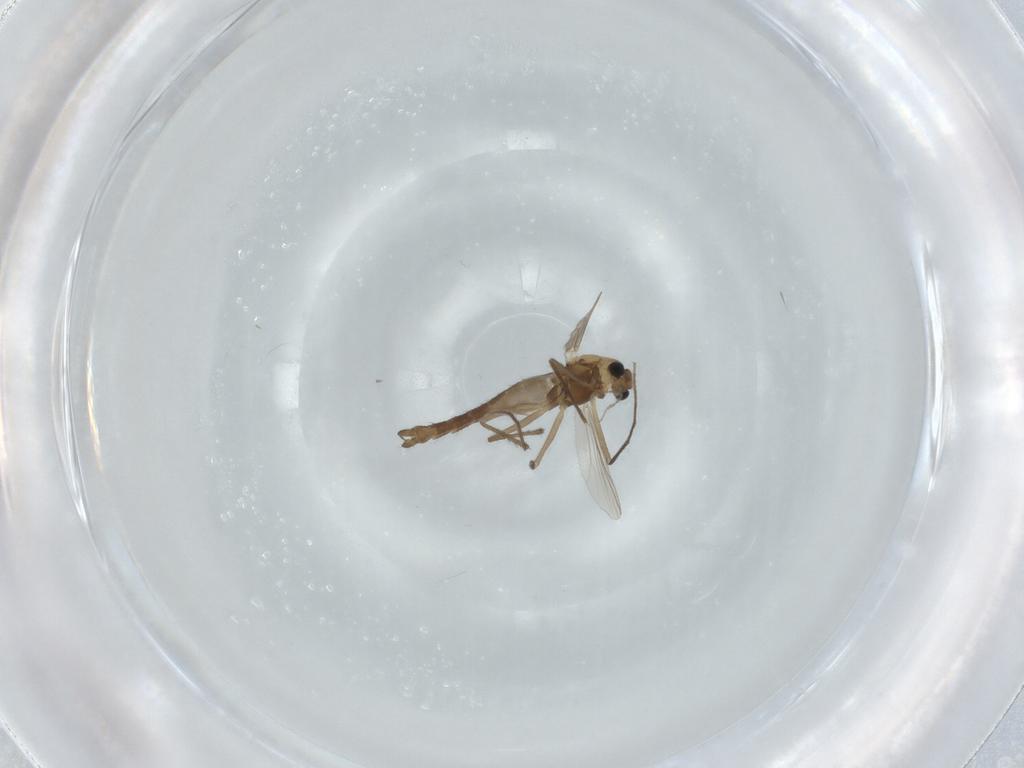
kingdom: Animalia
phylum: Arthropoda
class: Insecta
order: Diptera
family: Chironomidae
